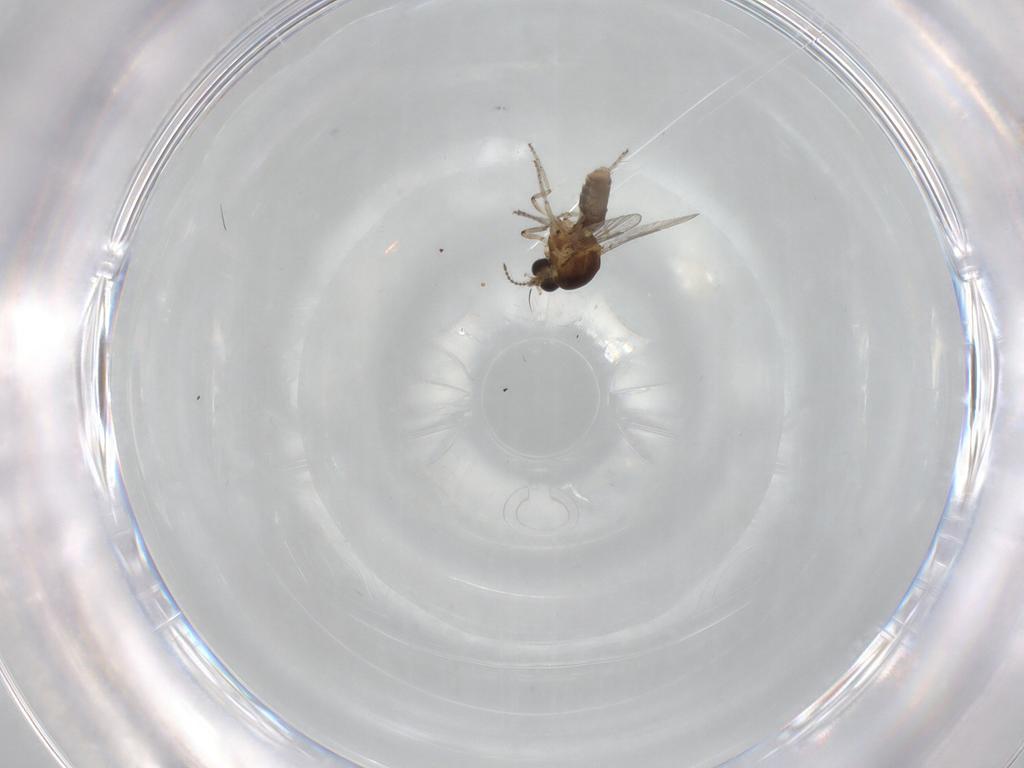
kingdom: Animalia
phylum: Arthropoda
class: Insecta
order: Diptera
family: Ceratopogonidae
